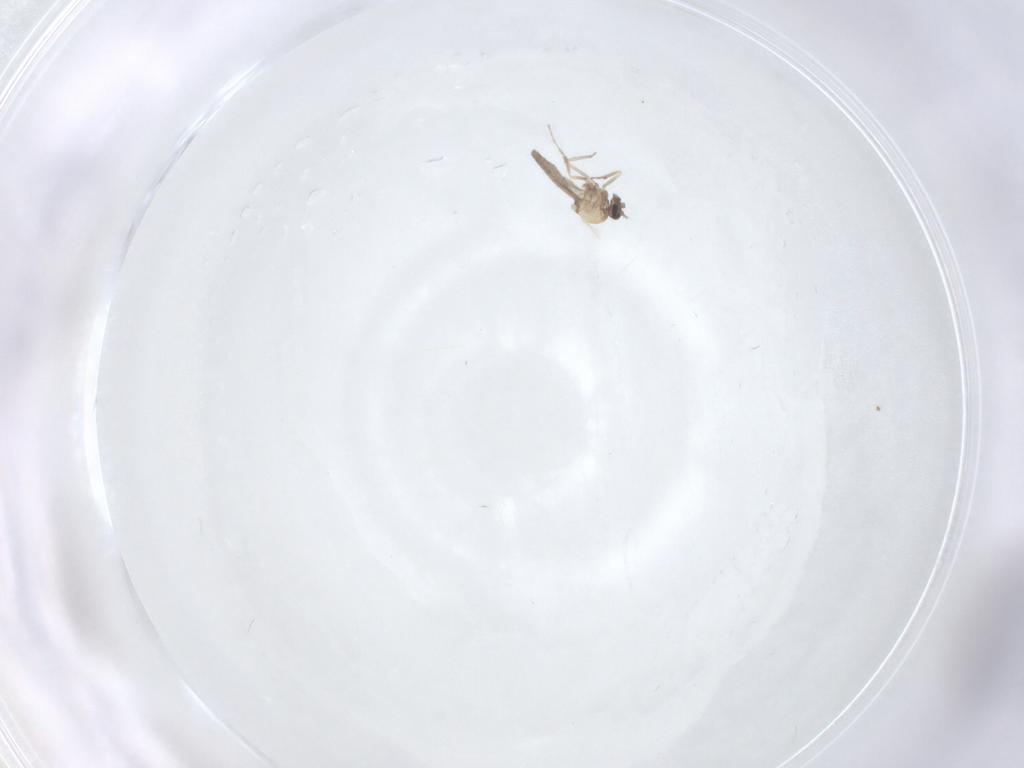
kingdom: Animalia
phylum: Arthropoda
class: Insecta
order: Diptera
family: Ceratopogonidae
